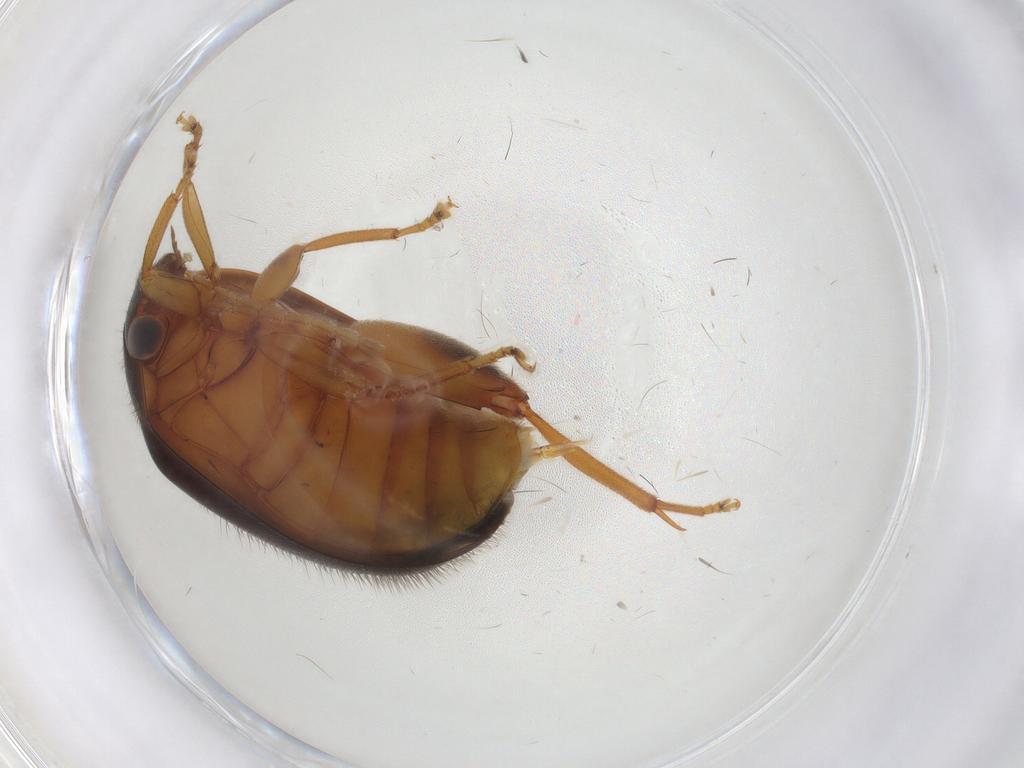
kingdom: Animalia
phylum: Arthropoda
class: Insecta
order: Coleoptera
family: Scirtidae
